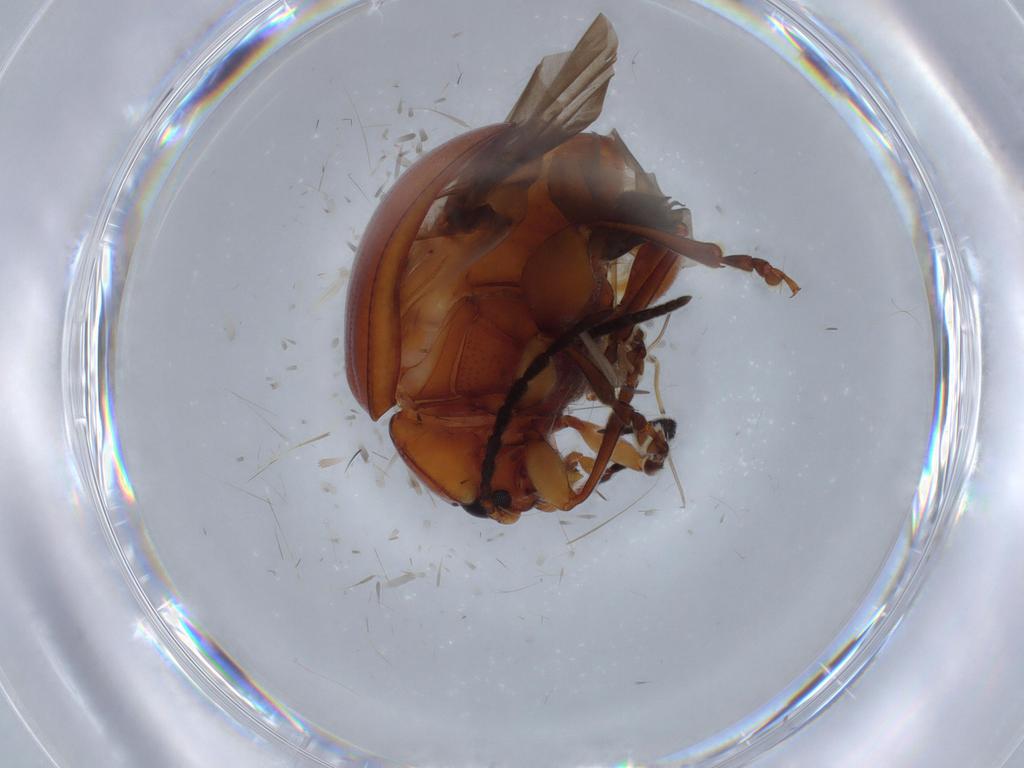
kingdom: Animalia
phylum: Arthropoda
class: Insecta
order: Coleoptera
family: Chrysomelidae
